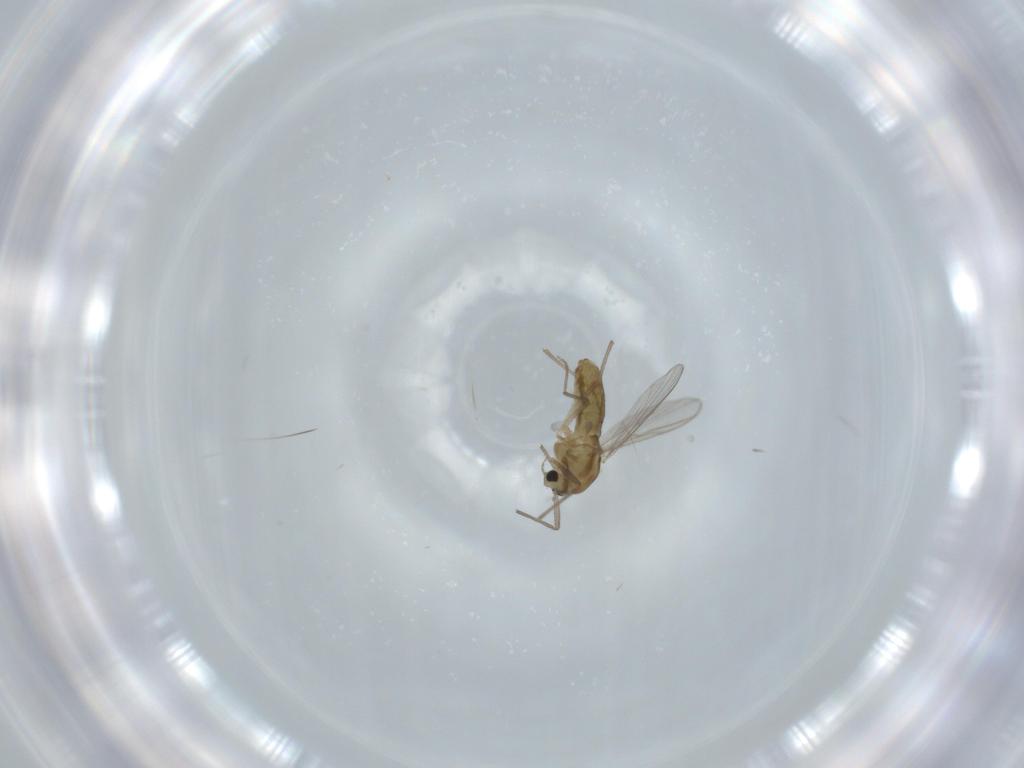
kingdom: Animalia
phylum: Arthropoda
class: Insecta
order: Diptera
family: Chironomidae
